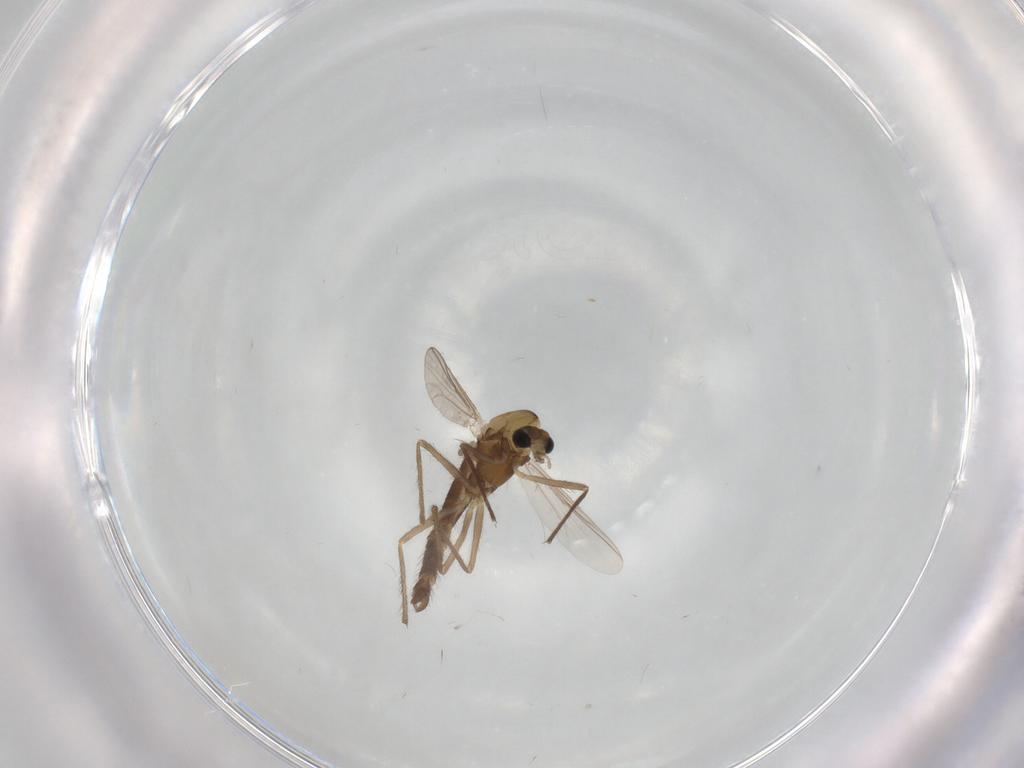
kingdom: Animalia
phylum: Arthropoda
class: Insecta
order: Diptera
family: Chironomidae
